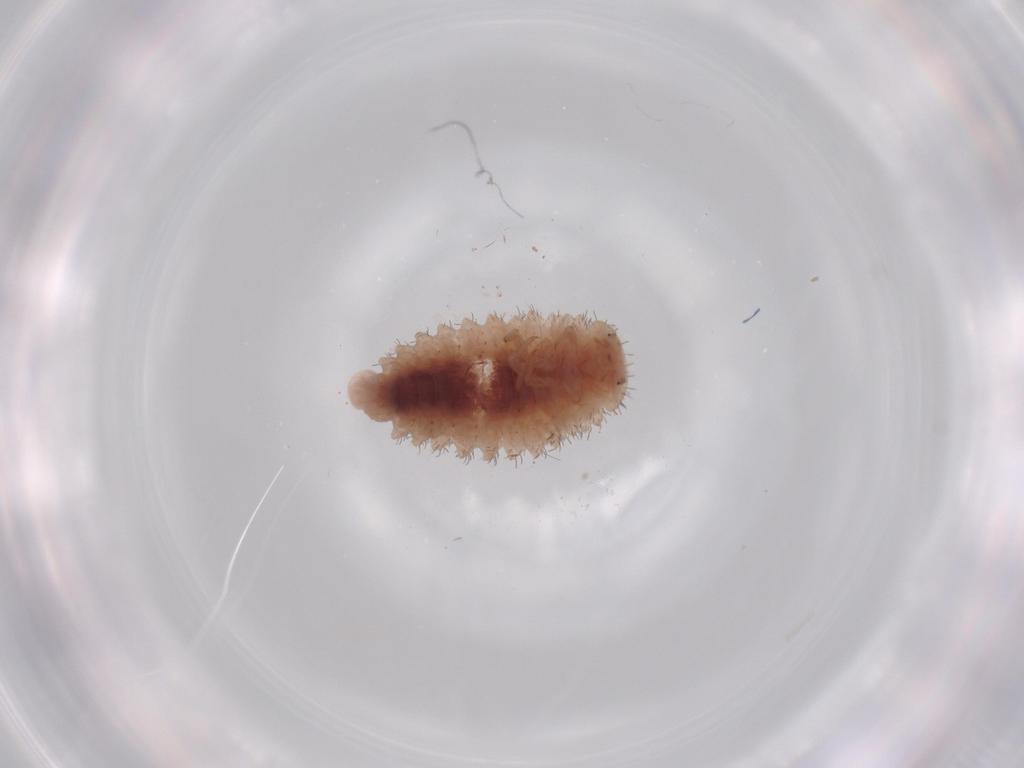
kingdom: Animalia
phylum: Arthropoda
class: Insecta
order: Coleoptera
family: Coccinellidae
